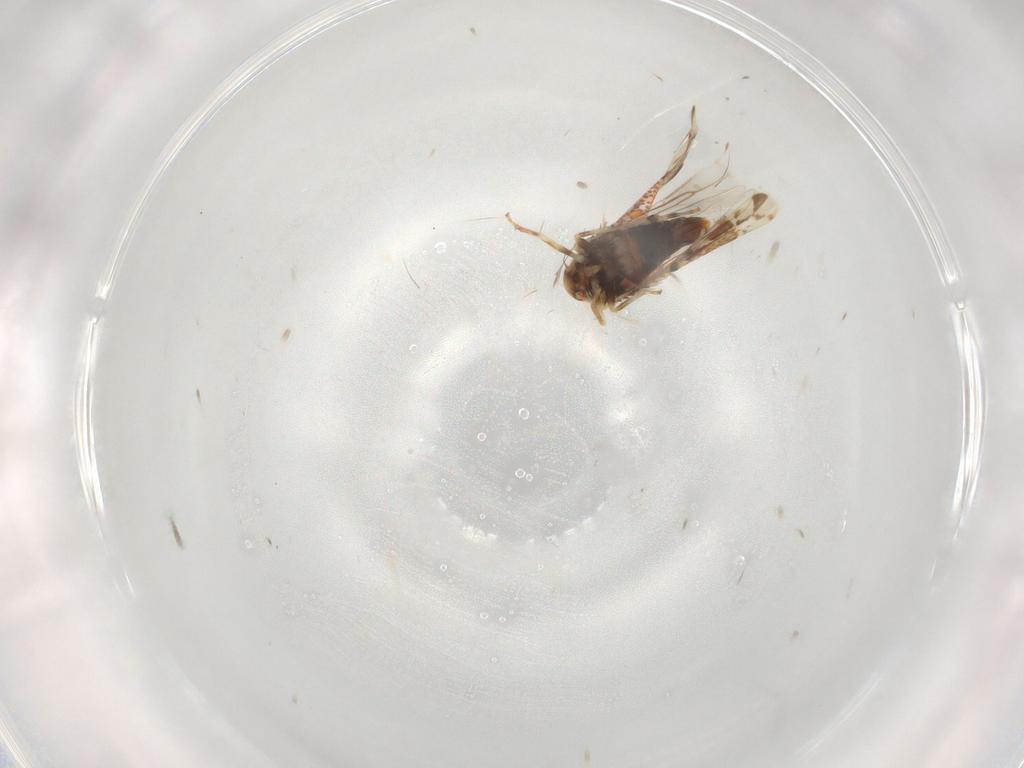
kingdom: Animalia
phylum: Arthropoda
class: Insecta
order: Hemiptera
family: Cicadellidae
